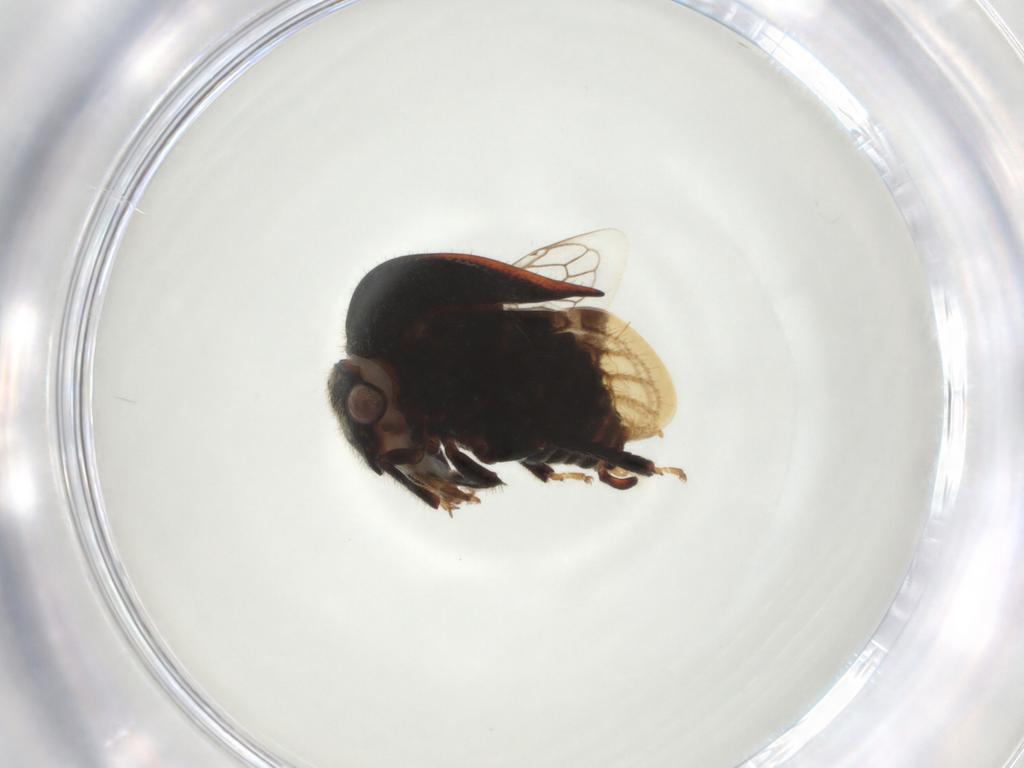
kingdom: Animalia
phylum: Arthropoda
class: Insecta
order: Hemiptera
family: Membracidae
